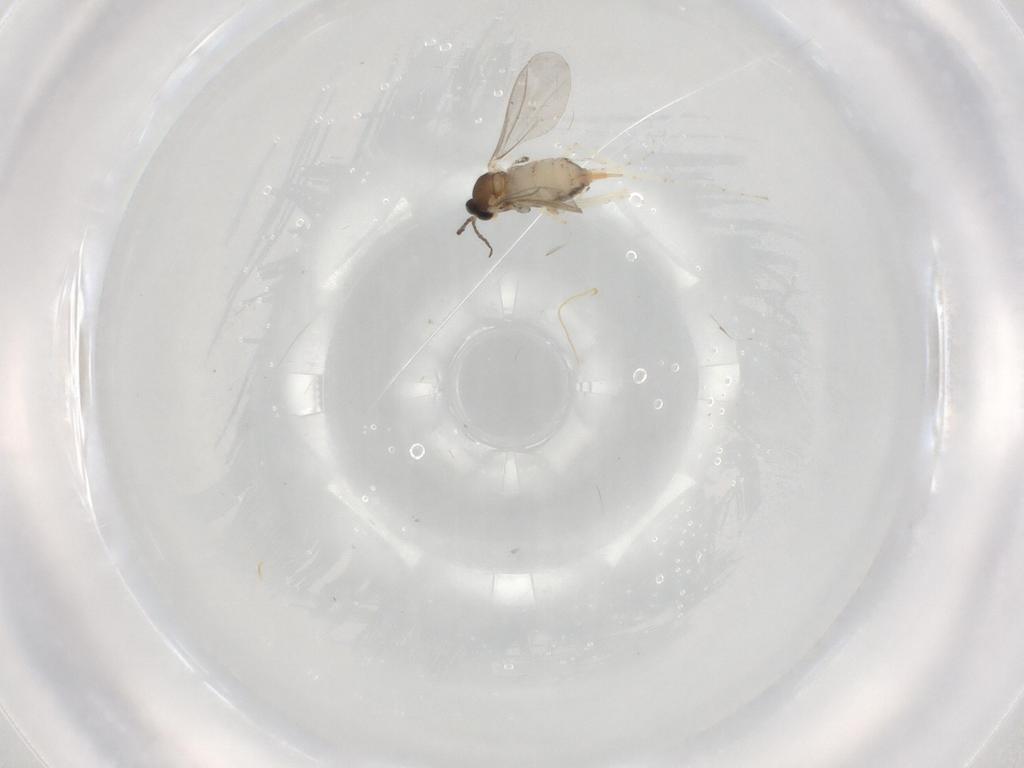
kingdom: Animalia
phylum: Arthropoda
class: Insecta
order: Diptera
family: Cecidomyiidae
